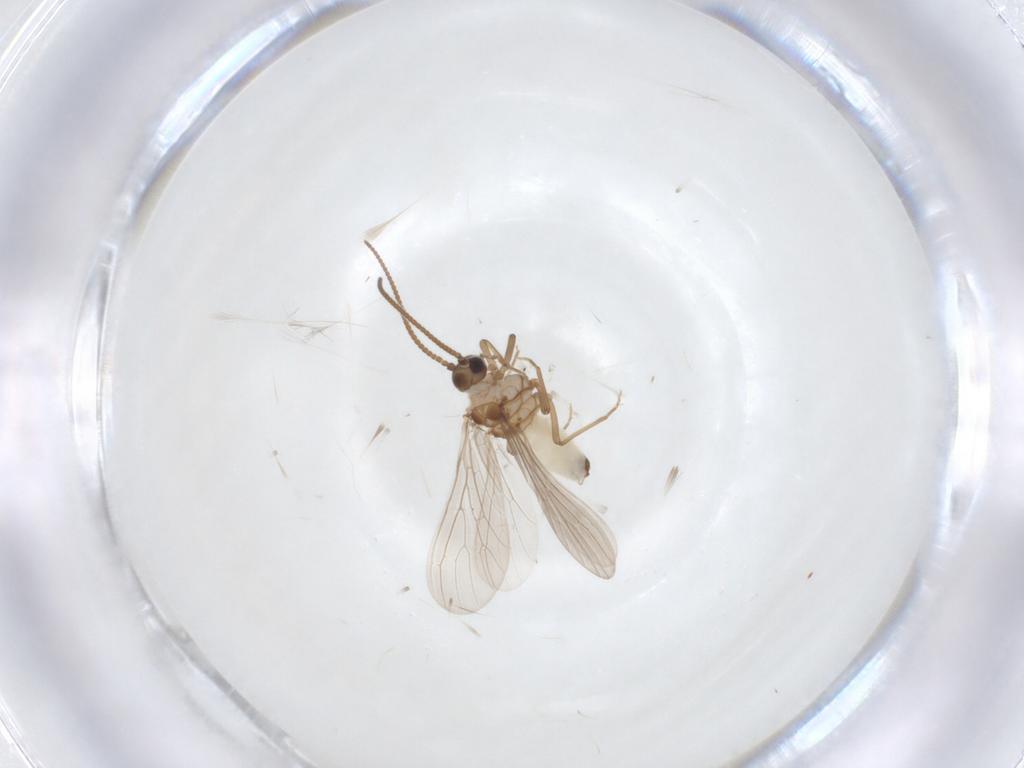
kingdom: Animalia
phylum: Arthropoda
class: Insecta
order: Neuroptera
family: Coniopterygidae
